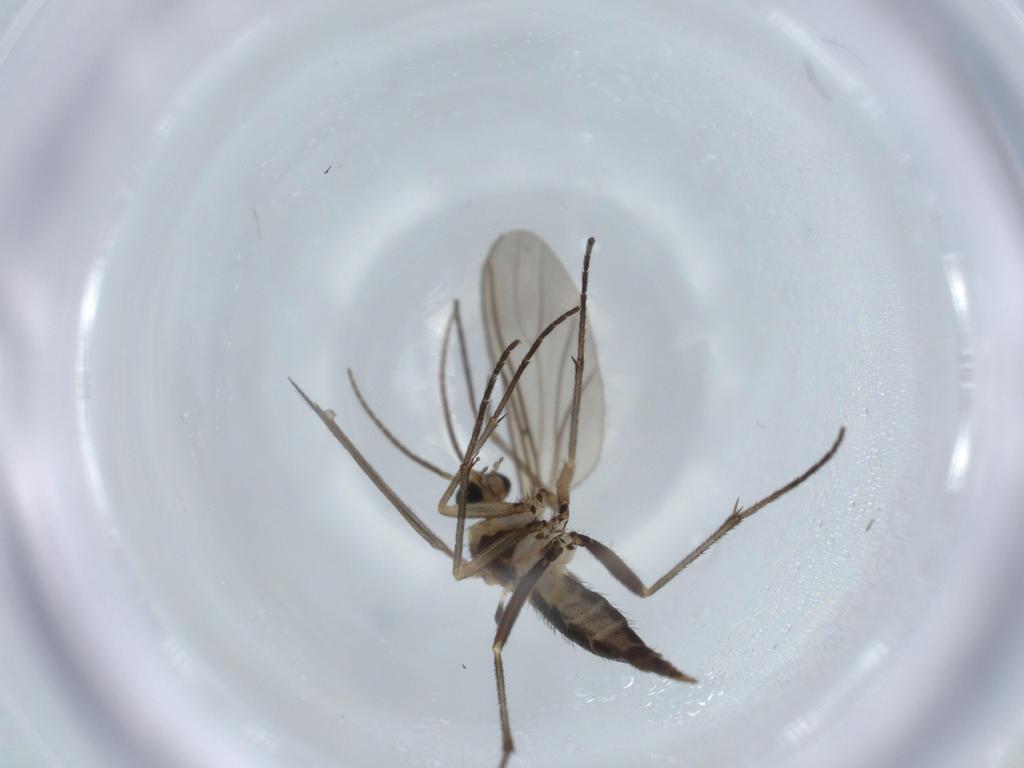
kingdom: Animalia
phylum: Arthropoda
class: Insecta
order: Diptera
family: Sciaridae
